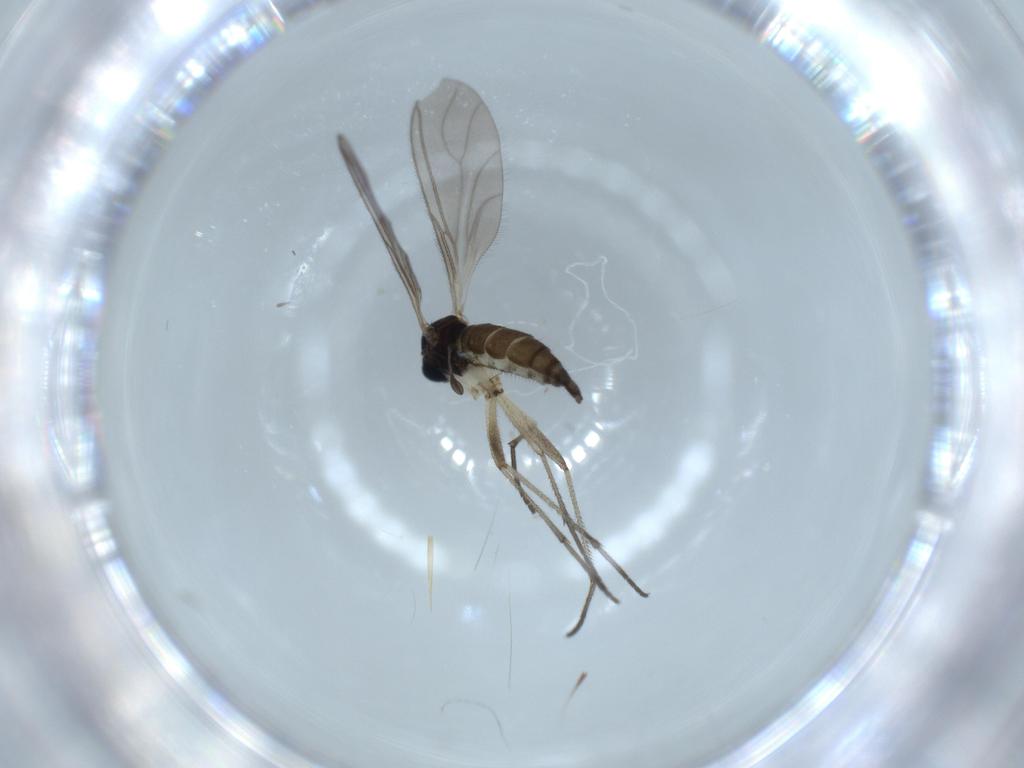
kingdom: Animalia
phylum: Arthropoda
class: Insecta
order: Diptera
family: Sciaridae
